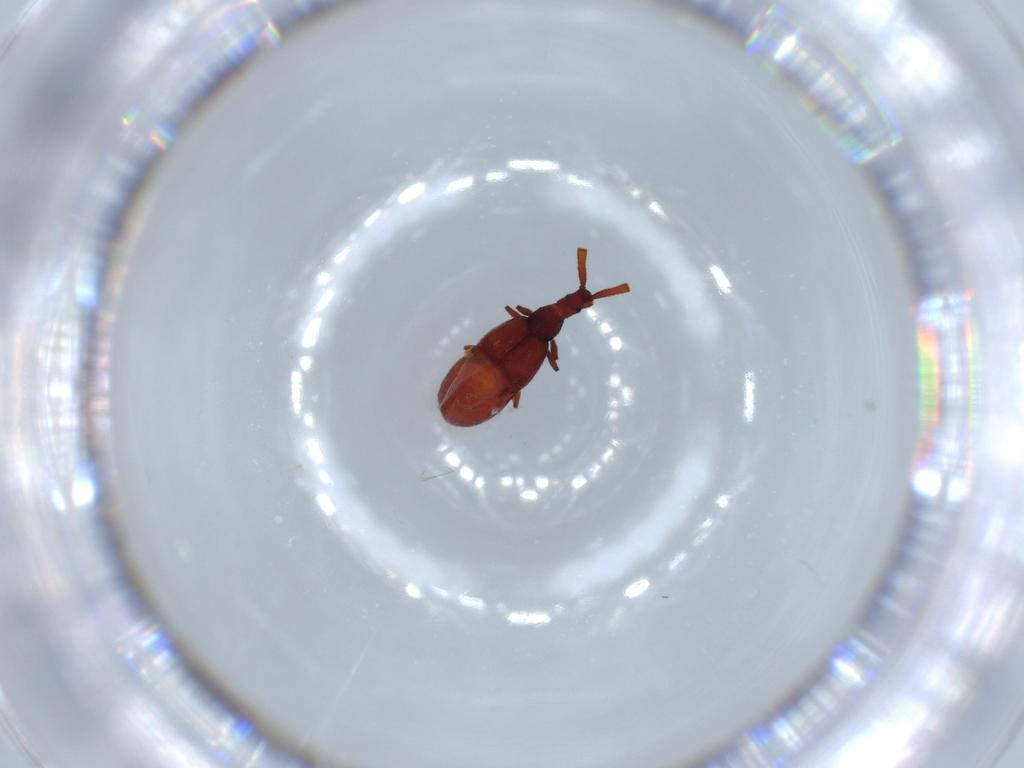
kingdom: Animalia
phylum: Arthropoda
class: Insecta
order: Coleoptera
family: Staphylinidae
